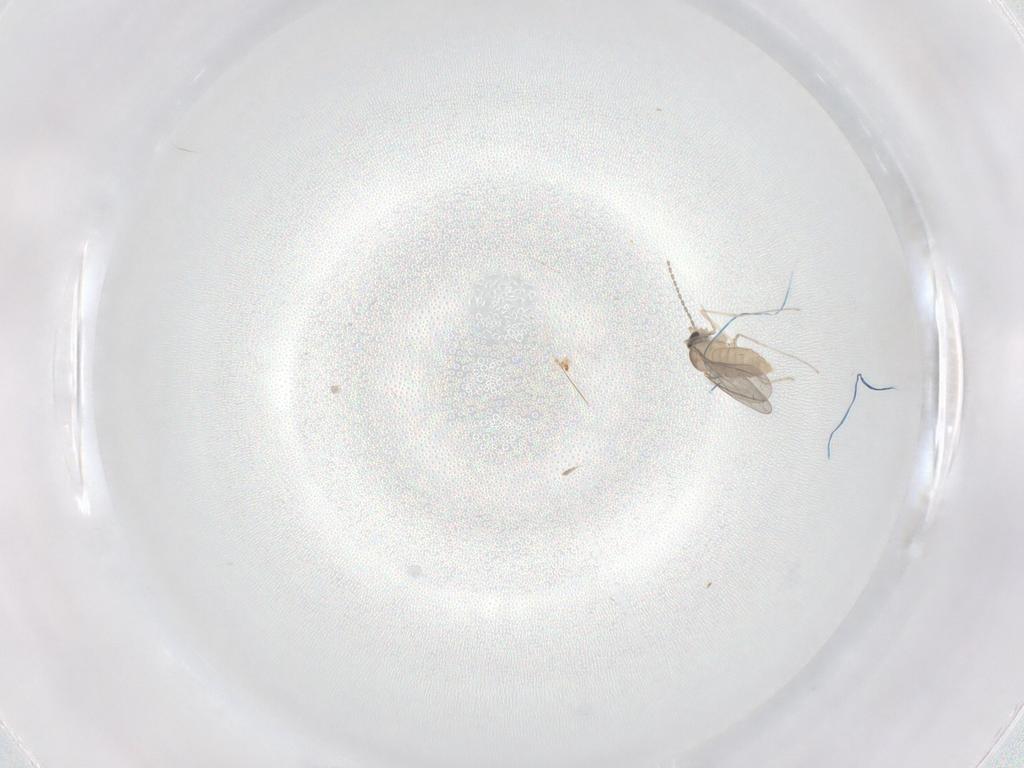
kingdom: Animalia
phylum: Arthropoda
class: Insecta
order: Diptera
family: Cecidomyiidae
